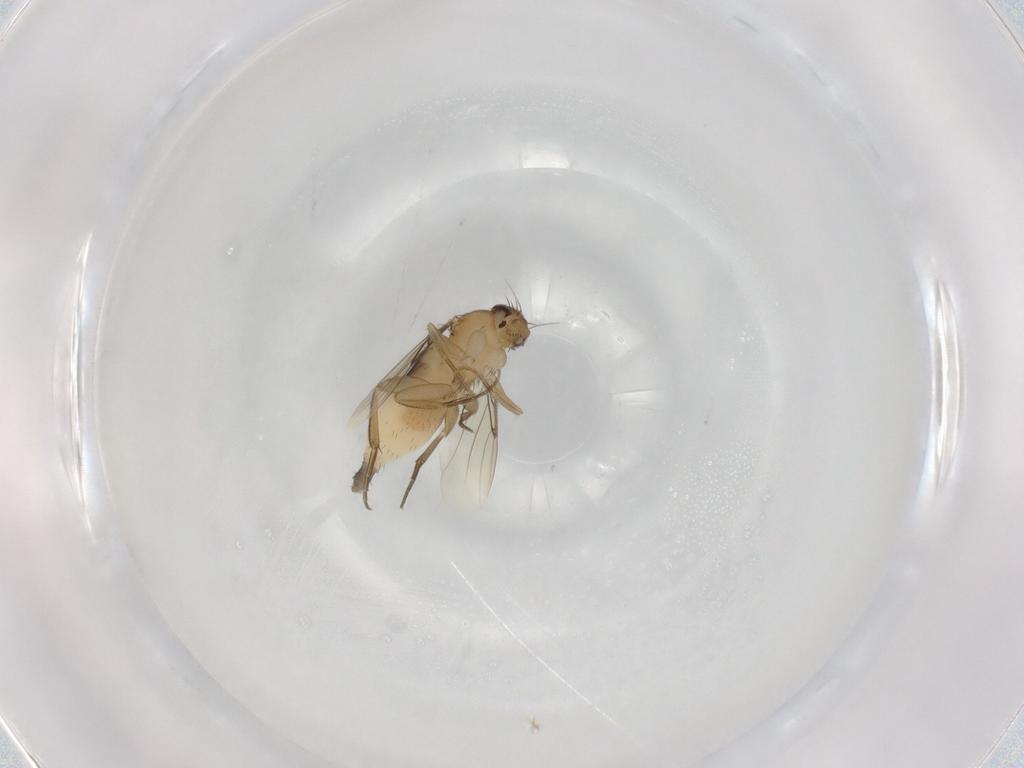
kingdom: Animalia
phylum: Arthropoda
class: Insecta
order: Diptera
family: Phoridae
